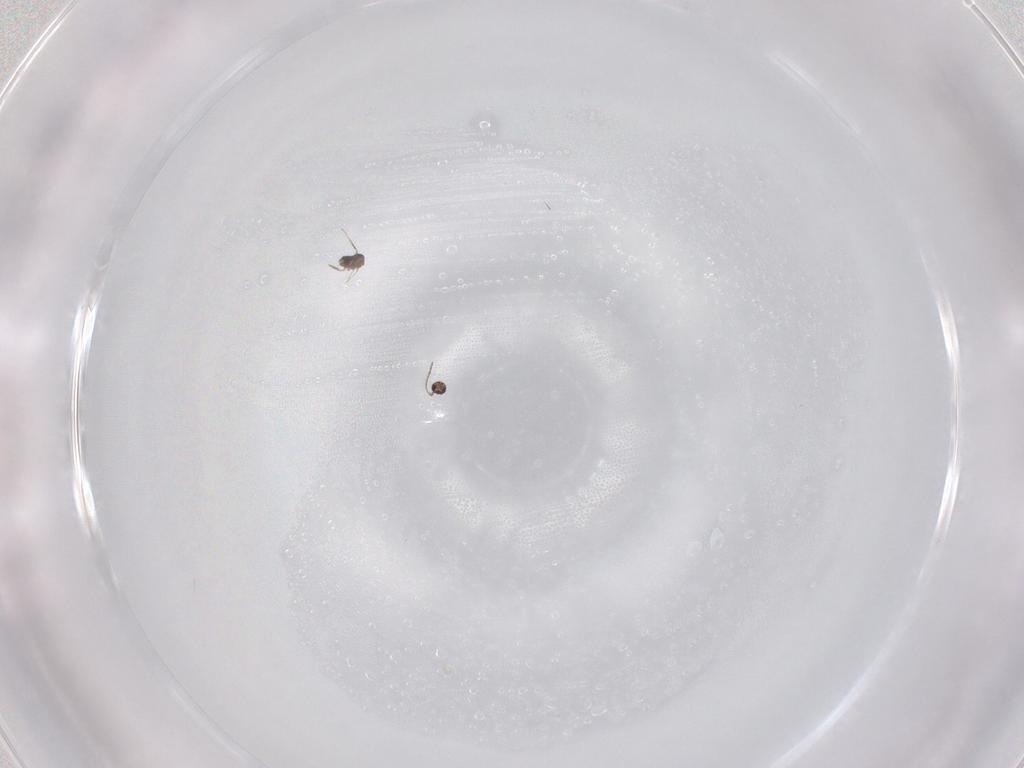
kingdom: Animalia
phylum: Arthropoda
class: Insecta
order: Hymenoptera
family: Mymaridae
